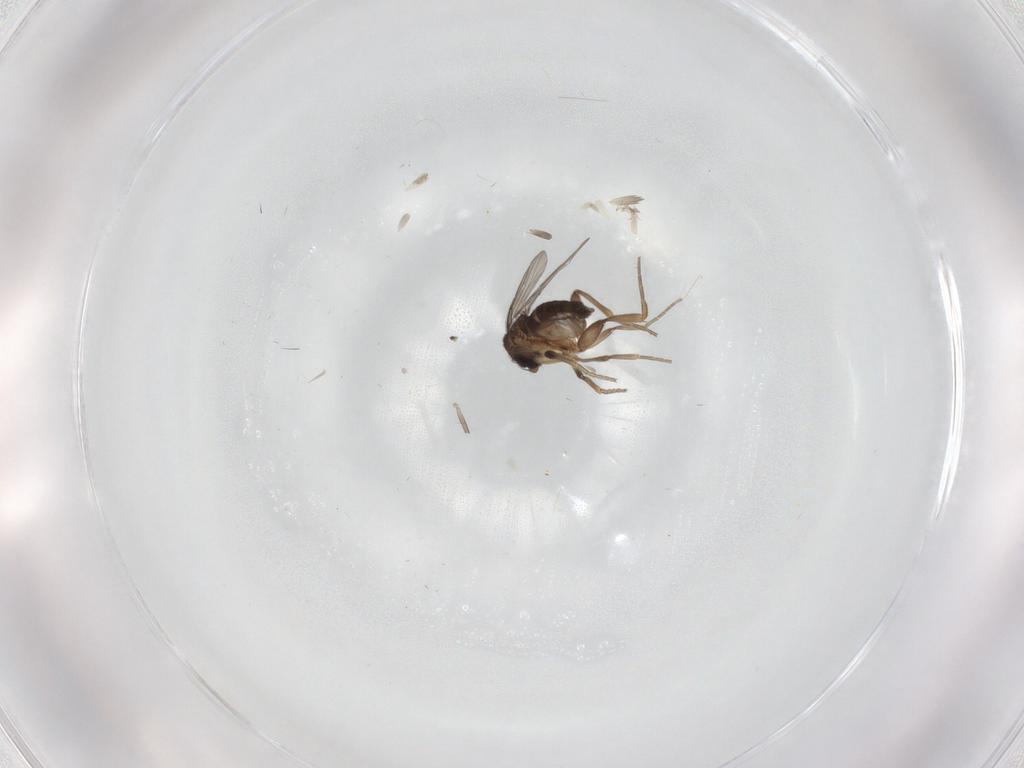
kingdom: Animalia
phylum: Arthropoda
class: Insecta
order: Diptera
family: Phoridae
